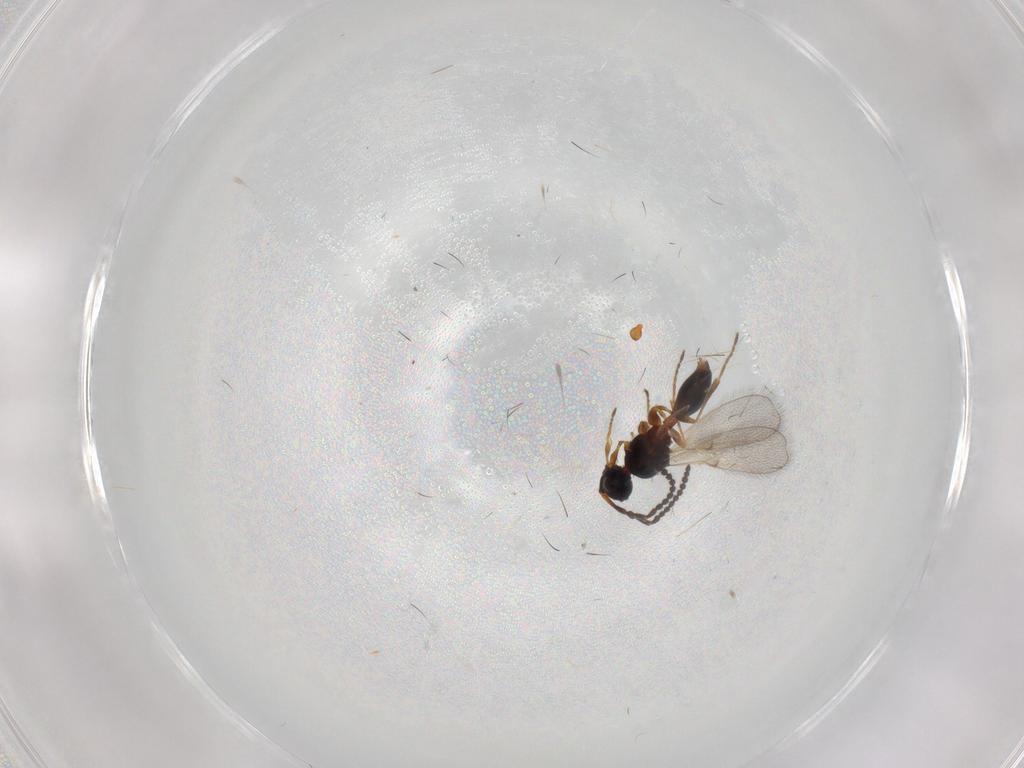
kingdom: Animalia
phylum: Arthropoda
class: Insecta
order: Hymenoptera
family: Diapriidae
